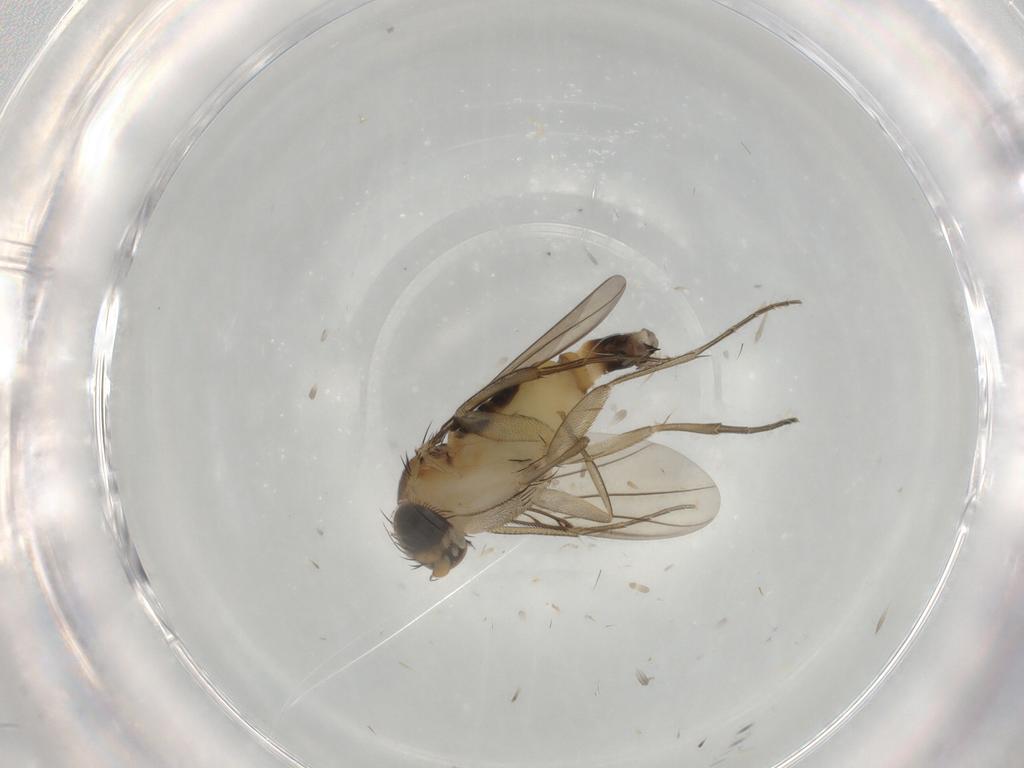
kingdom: Animalia
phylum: Arthropoda
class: Insecta
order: Diptera
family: Phoridae
